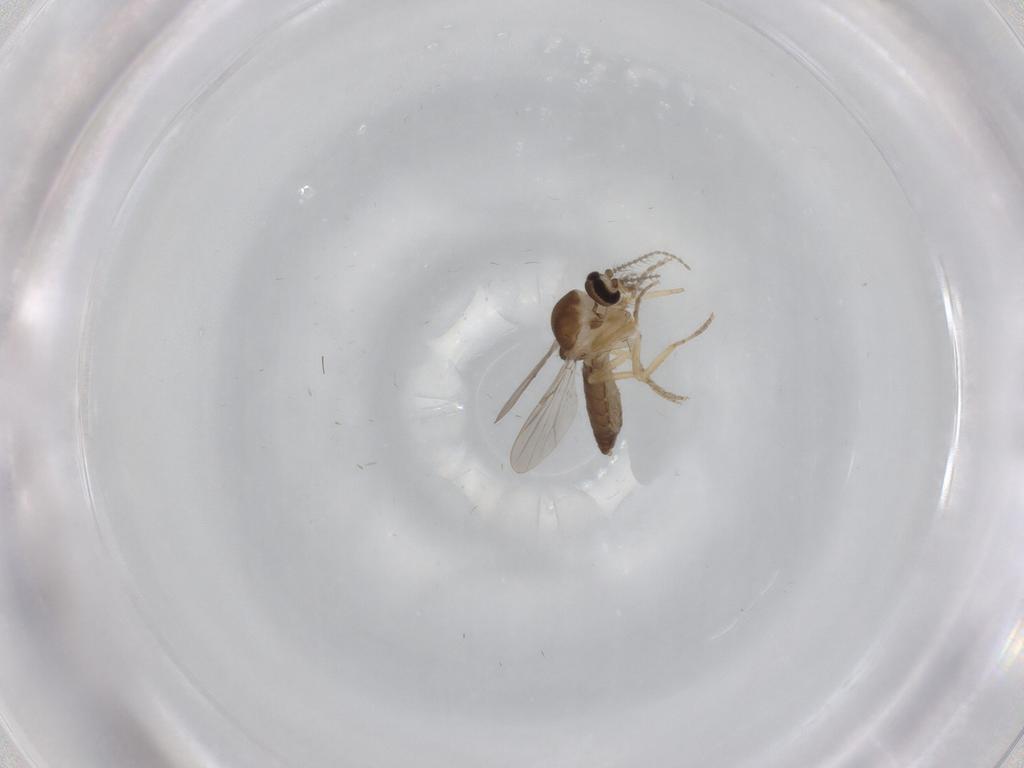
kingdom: Animalia
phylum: Arthropoda
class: Insecta
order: Diptera
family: Ceratopogonidae
